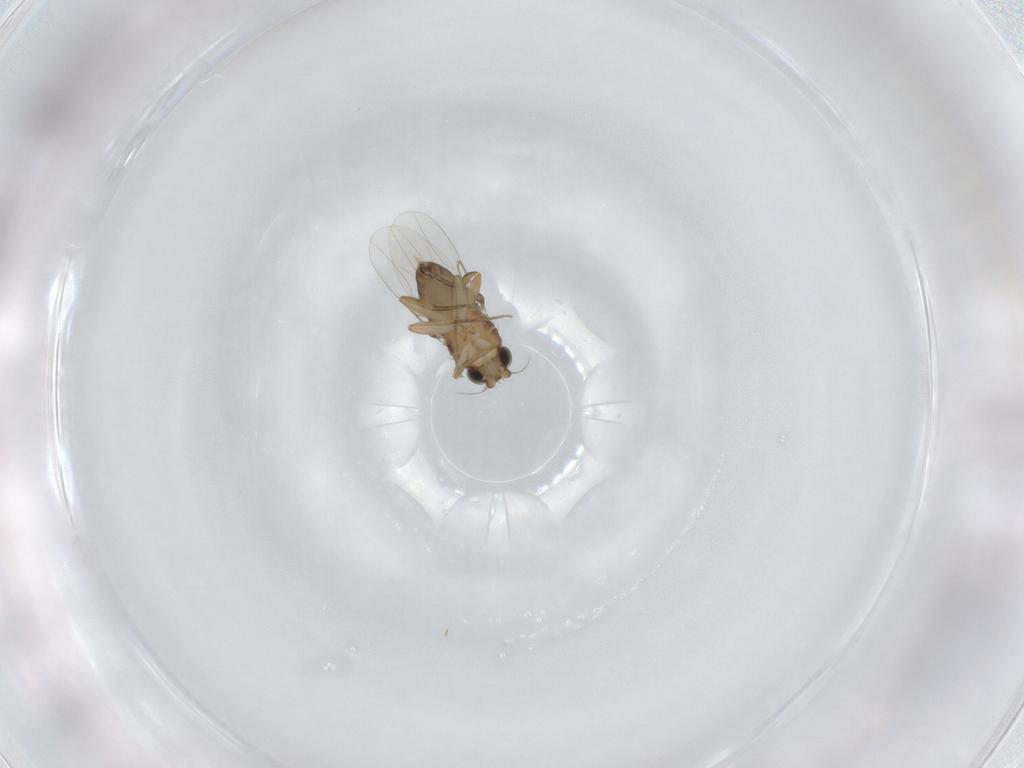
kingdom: Animalia
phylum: Arthropoda
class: Insecta
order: Diptera
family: Phoridae
